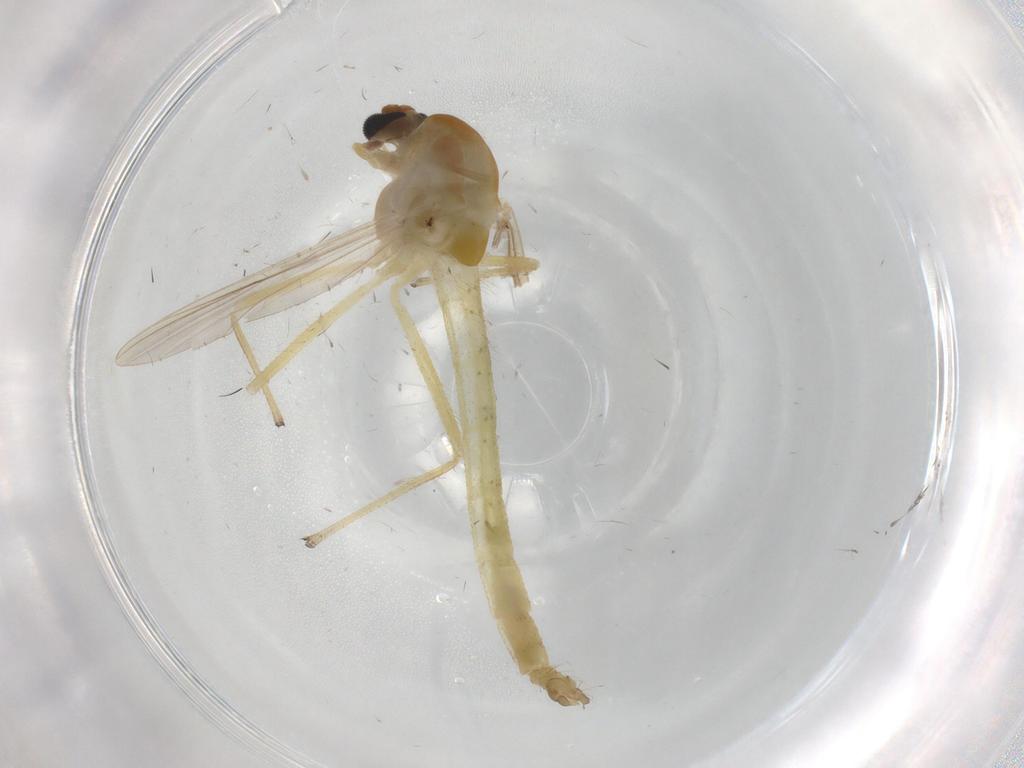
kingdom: Animalia
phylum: Arthropoda
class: Insecta
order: Diptera
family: Chironomidae
